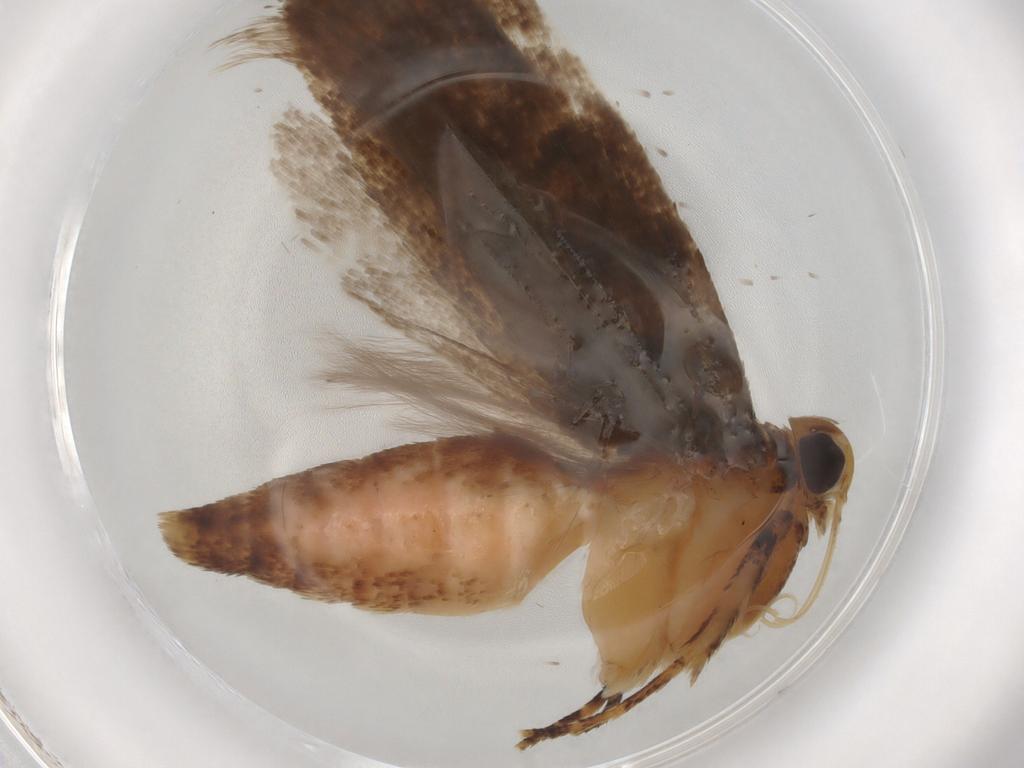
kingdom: Animalia
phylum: Arthropoda
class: Insecta
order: Lepidoptera
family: Gelechiidae
